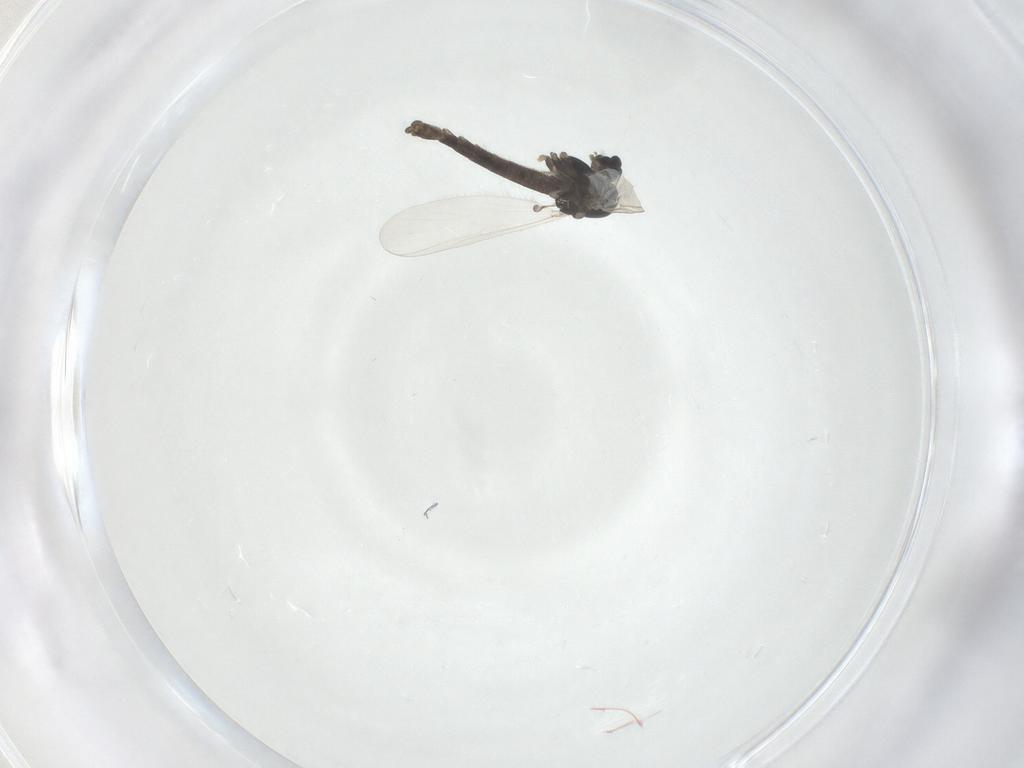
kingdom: Animalia
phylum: Arthropoda
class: Insecta
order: Diptera
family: Chironomidae
